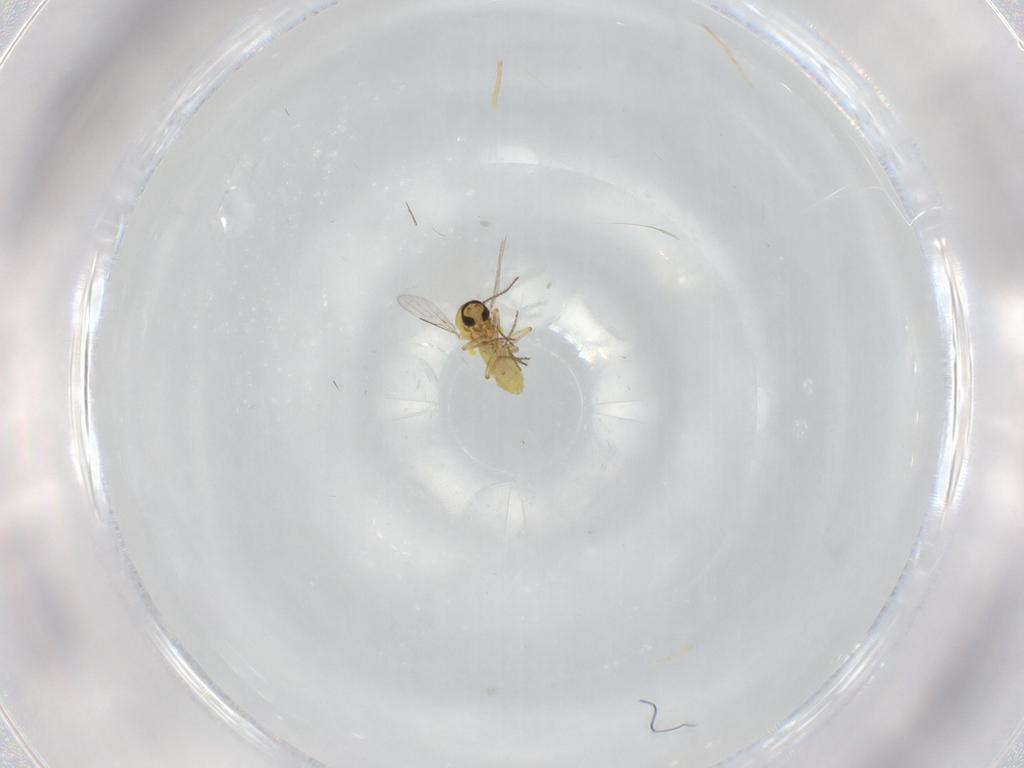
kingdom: Animalia
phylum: Arthropoda
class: Insecta
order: Diptera
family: Ceratopogonidae
